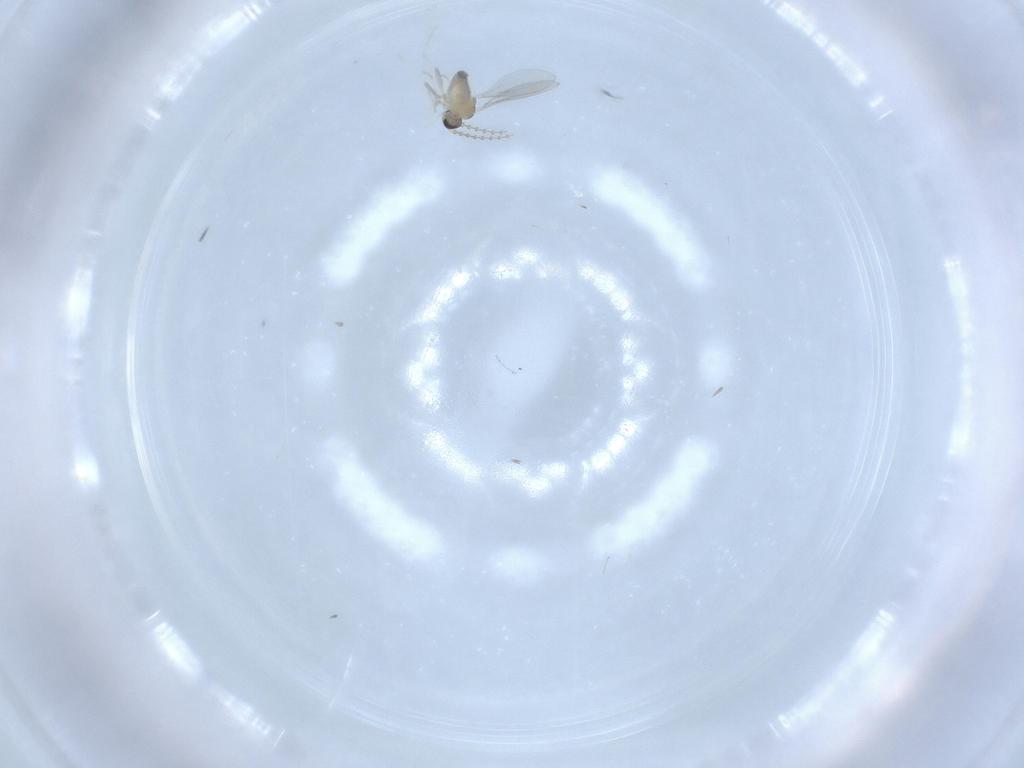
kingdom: Animalia
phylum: Arthropoda
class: Insecta
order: Diptera
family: Cecidomyiidae
